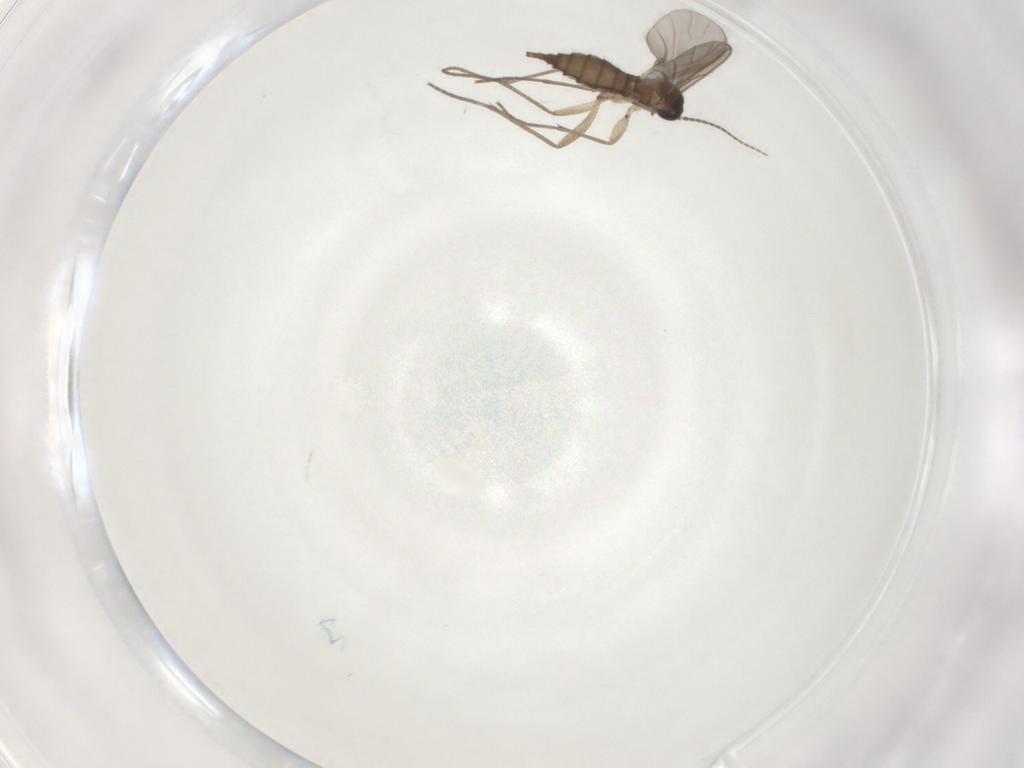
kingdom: Animalia
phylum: Arthropoda
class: Insecta
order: Diptera
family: Sciaridae
